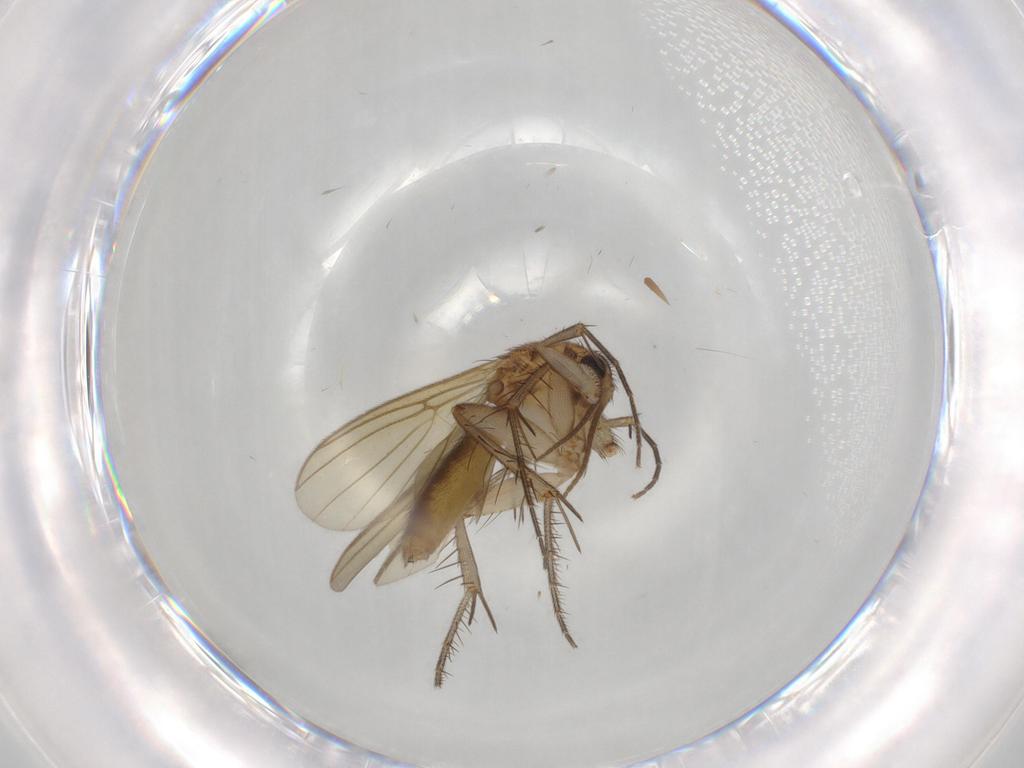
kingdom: Animalia
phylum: Arthropoda
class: Insecta
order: Diptera
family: Mycetophilidae
